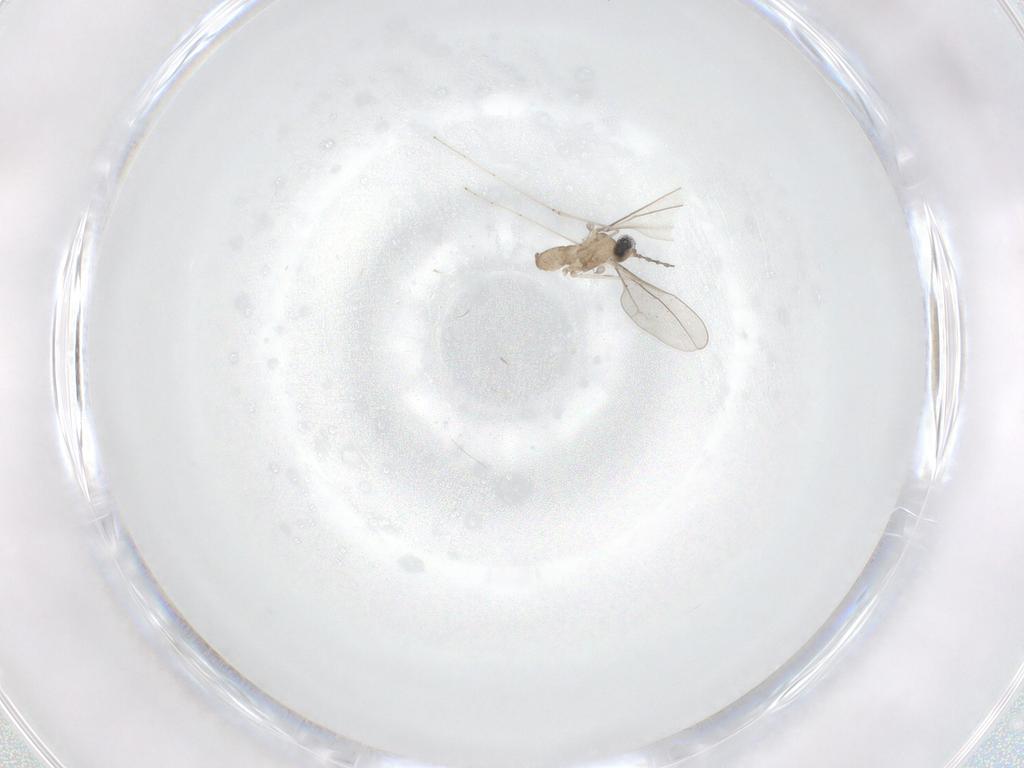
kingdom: Animalia
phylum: Arthropoda
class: Insecta
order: Diptera
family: Cecidomyiidae
